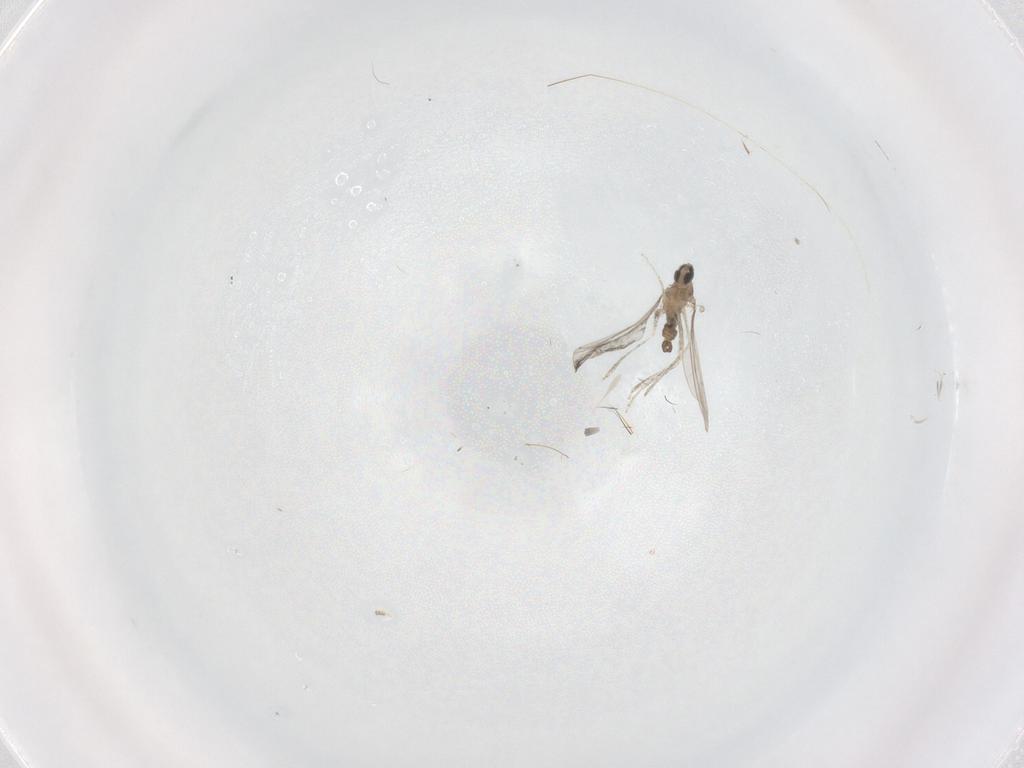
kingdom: Animalia
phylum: Arthropoda
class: Insecta
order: Diptera
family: Cecidomyiidae
